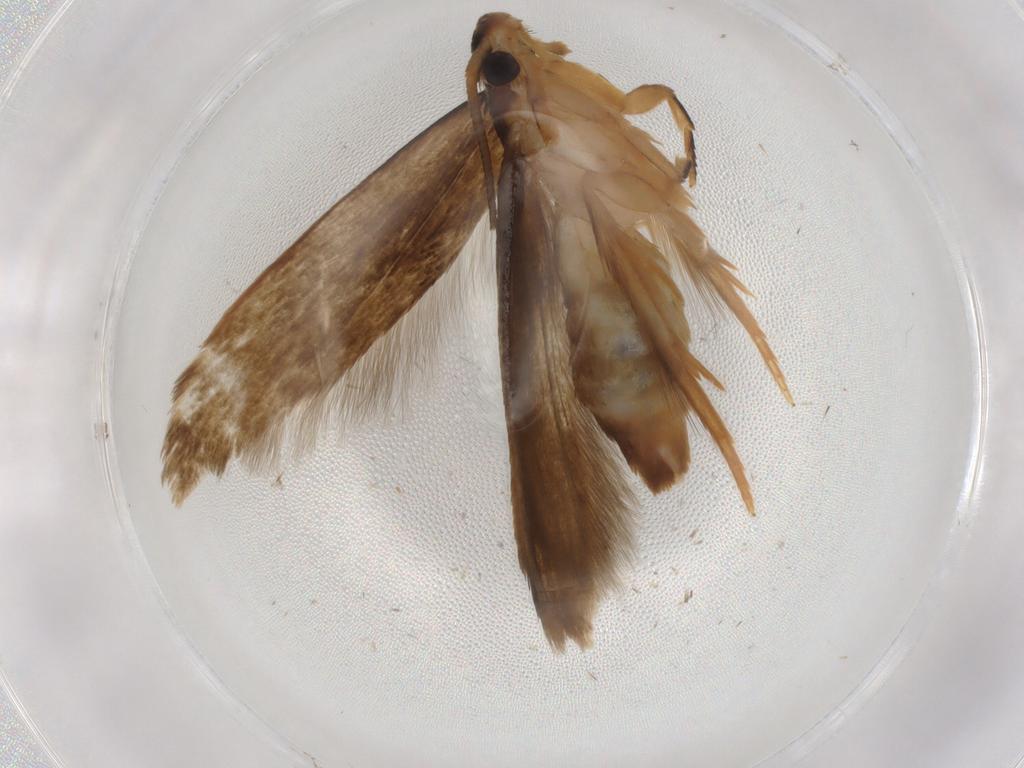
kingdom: Animalia
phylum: Arthropoda
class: Insecta
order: Lepidoptera
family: Tineidae
